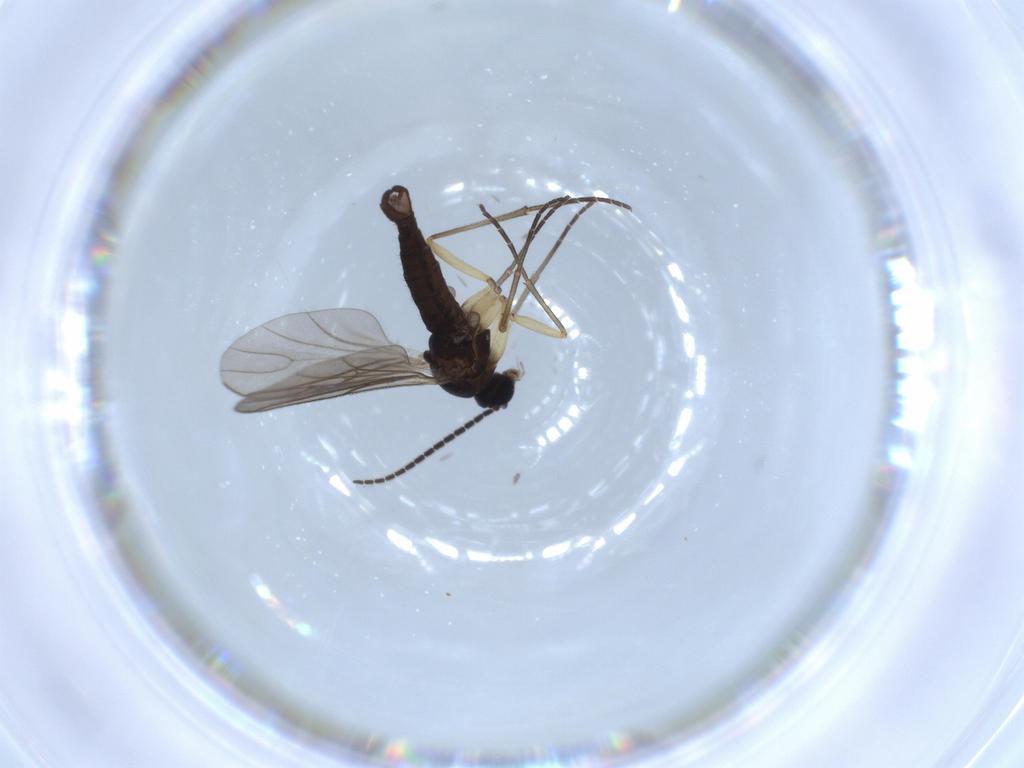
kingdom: Animalia
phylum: Arthropoda
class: Insecta
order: Diptera
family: Sciaridae
